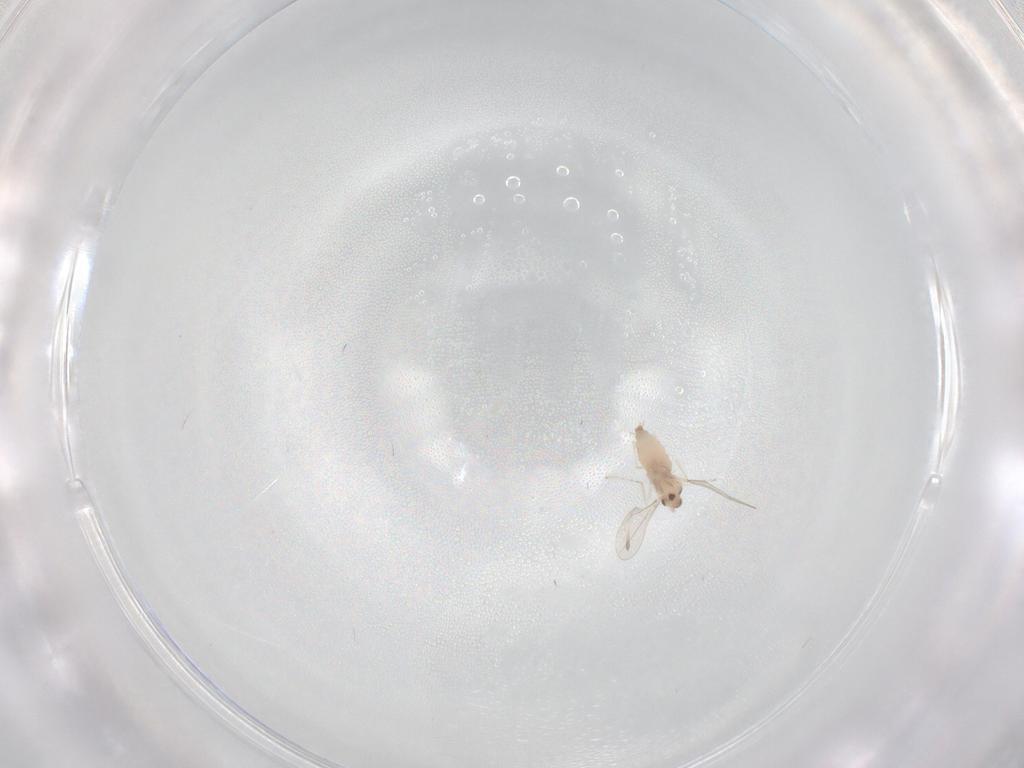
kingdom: Animalia
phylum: Arthropoda
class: Insecta
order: Diptera
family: Cecidomyiidae
